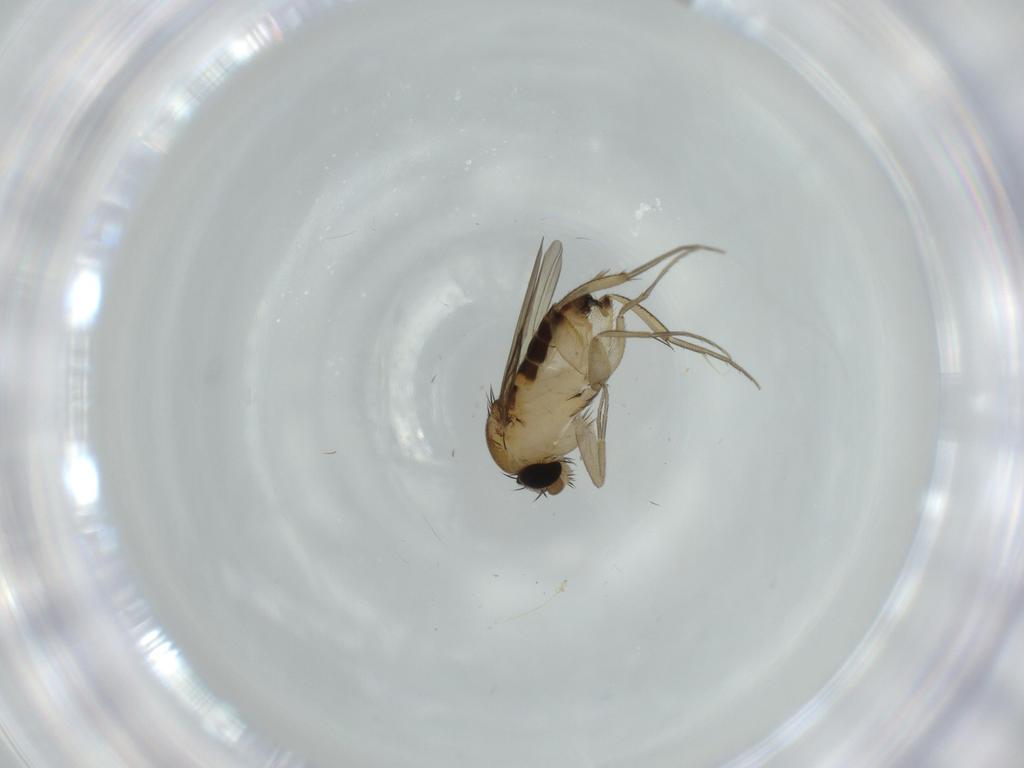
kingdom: Animalia
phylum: Arthropoda
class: Insecta
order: Diptera
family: Phoridae
